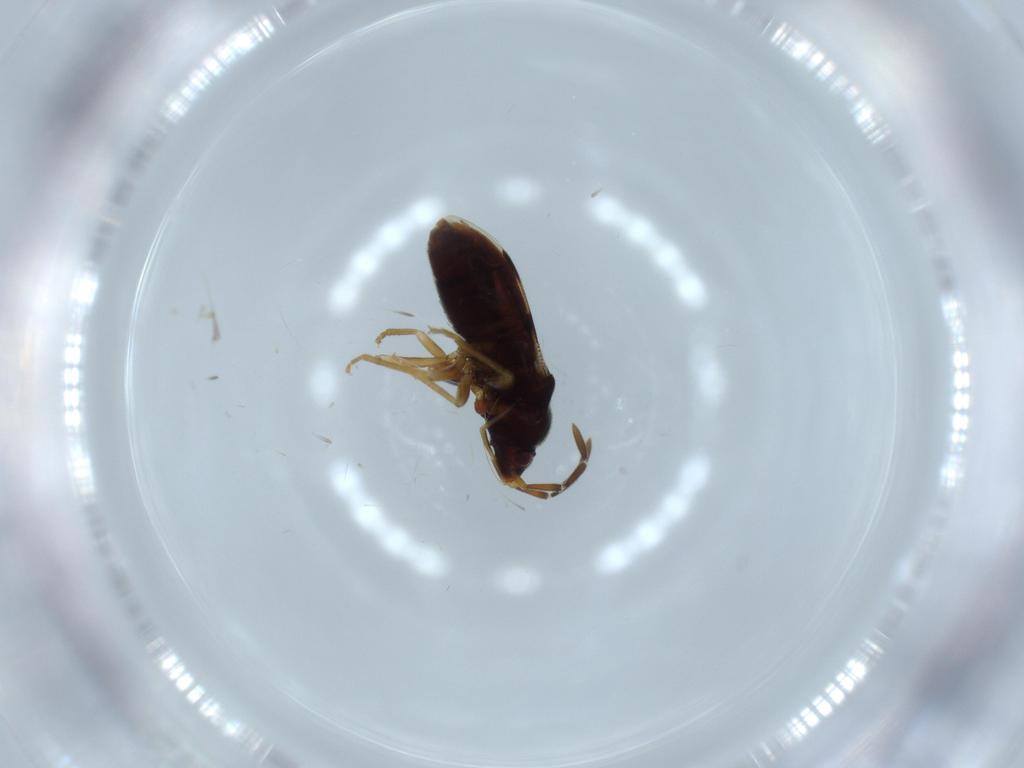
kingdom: Animalia
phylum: Arthropoda
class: Insecta
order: Hemiptera
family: Rhyparochromidae
